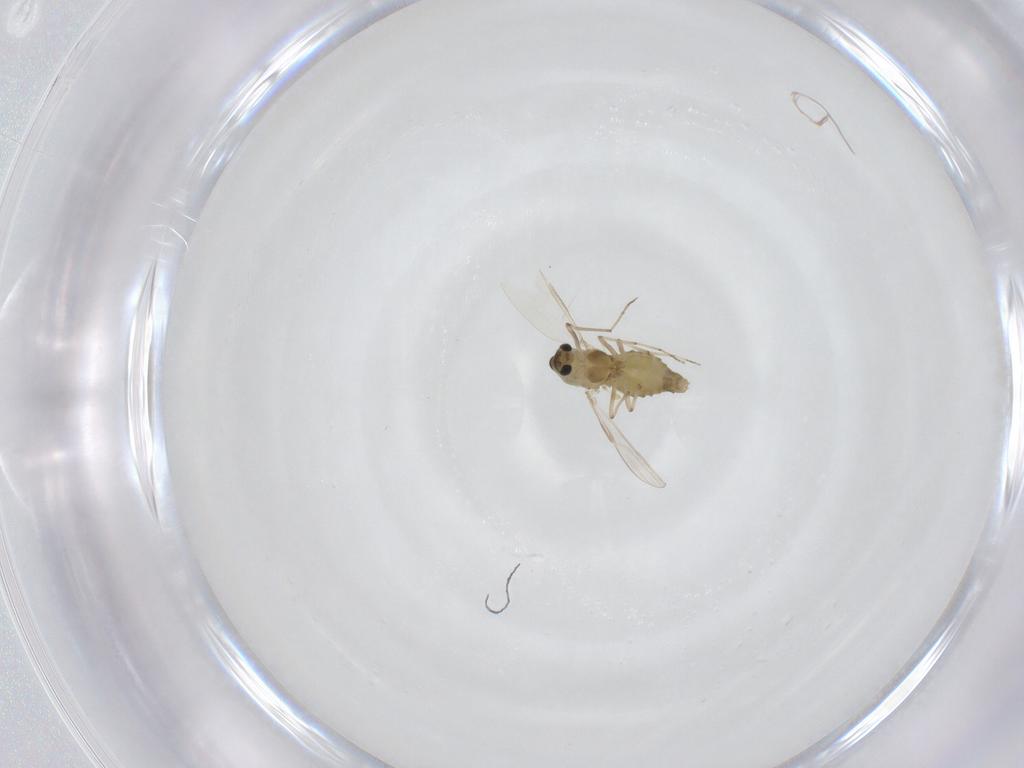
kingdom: Animalia
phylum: Arthropoda
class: Insecta
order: Diptera
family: Chironomidae
